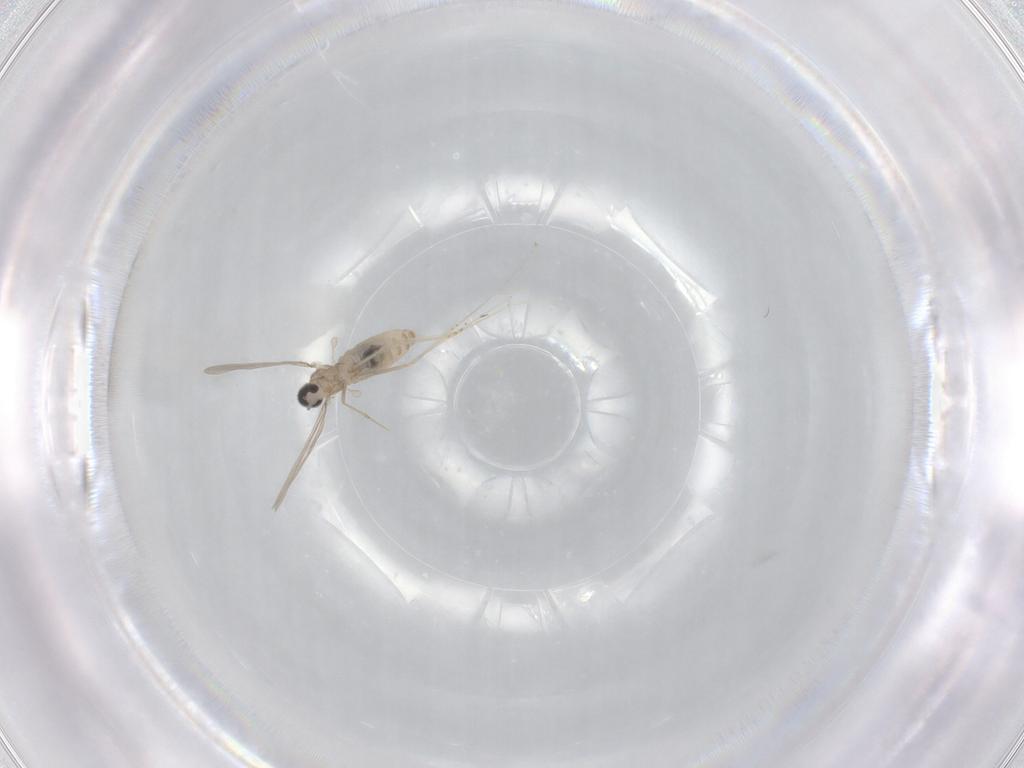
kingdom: Animalia
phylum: Arthropoda
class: Insecta
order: Diptera
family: Cecidomyiidae
